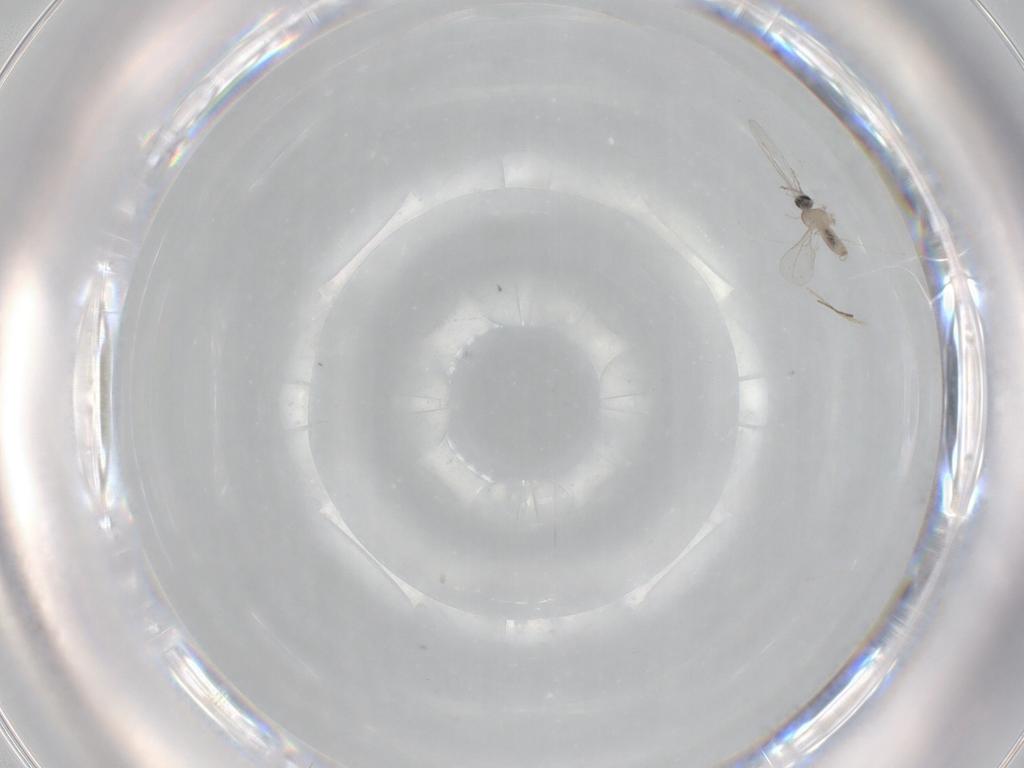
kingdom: Animalia
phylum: Arthropoda
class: Insecta
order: Diptera
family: Cecidomyiidae
